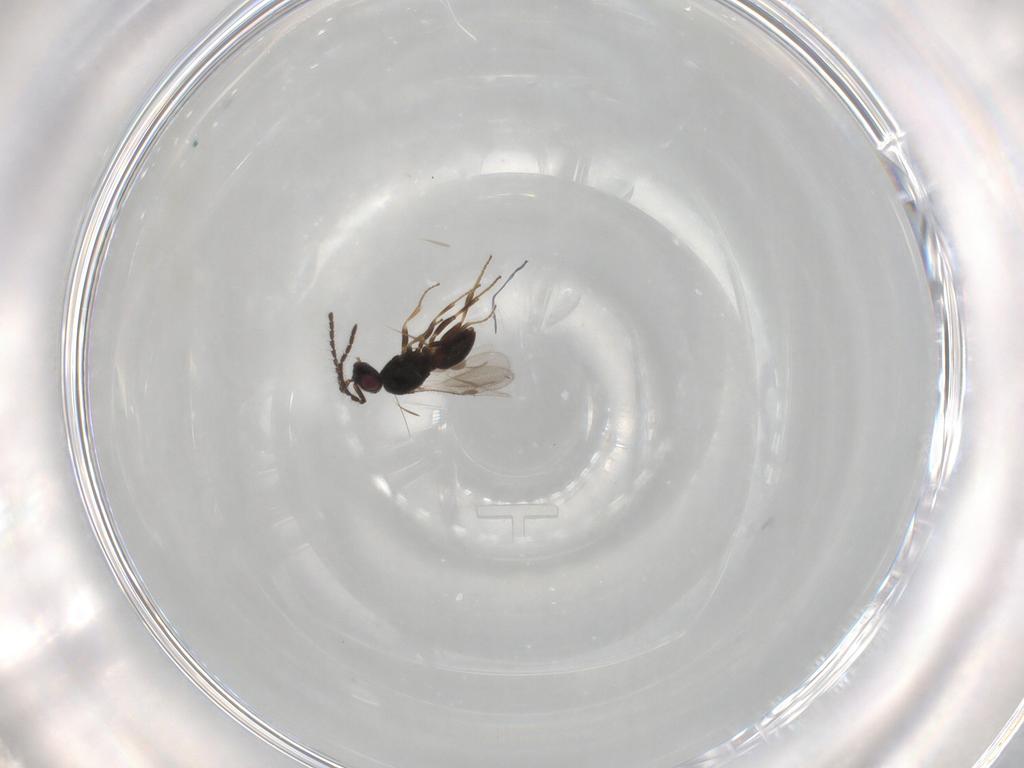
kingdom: Animalia
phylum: Arthropoda
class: Insecta
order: Hymenoptera
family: Megaspilidae
